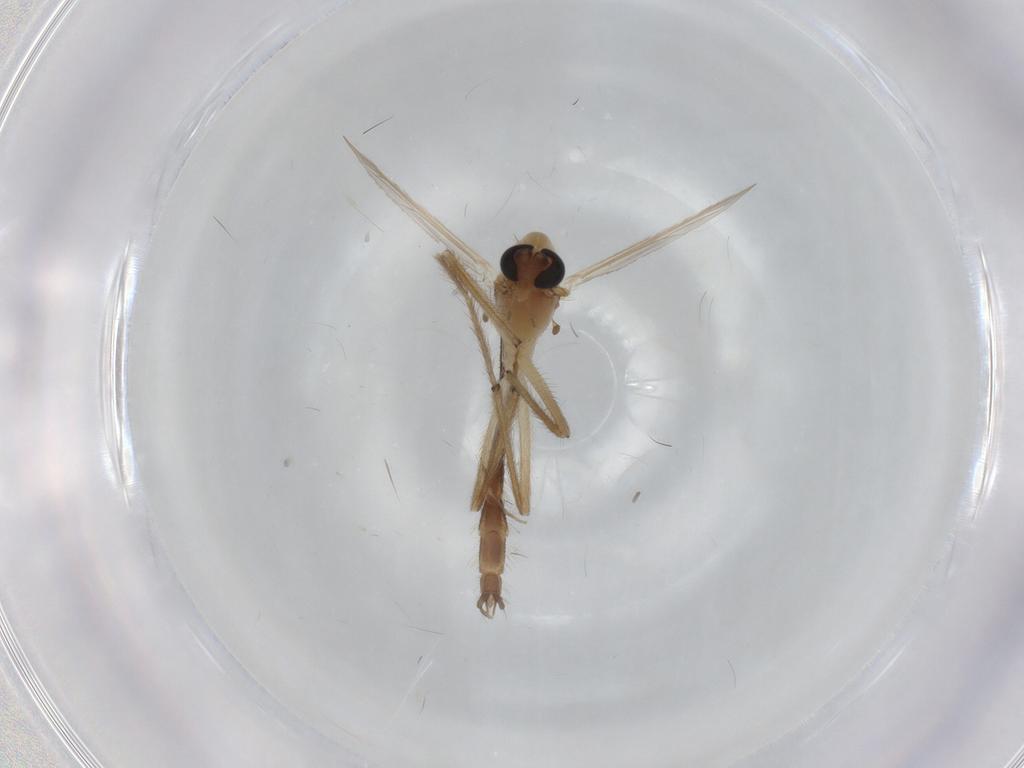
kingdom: Animalia
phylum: Arthropoda
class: Insecta
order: Diptera
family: Chironomidae
